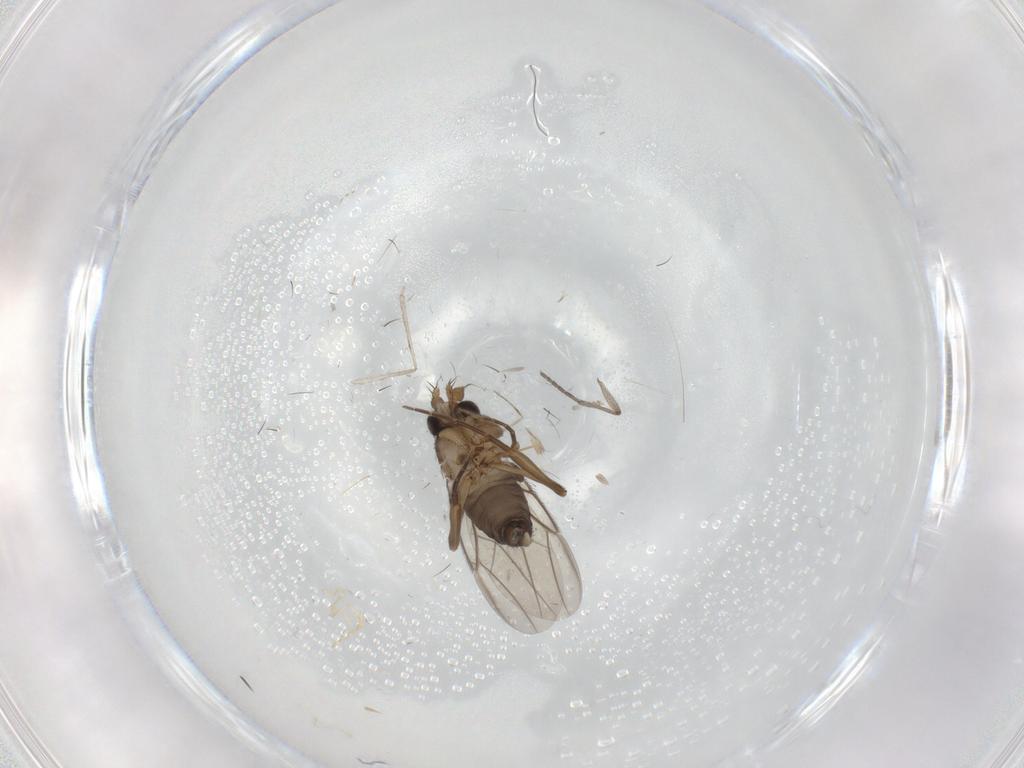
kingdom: Animalia
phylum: Arthropoda
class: Insecta
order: Diptera
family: Phoridae
